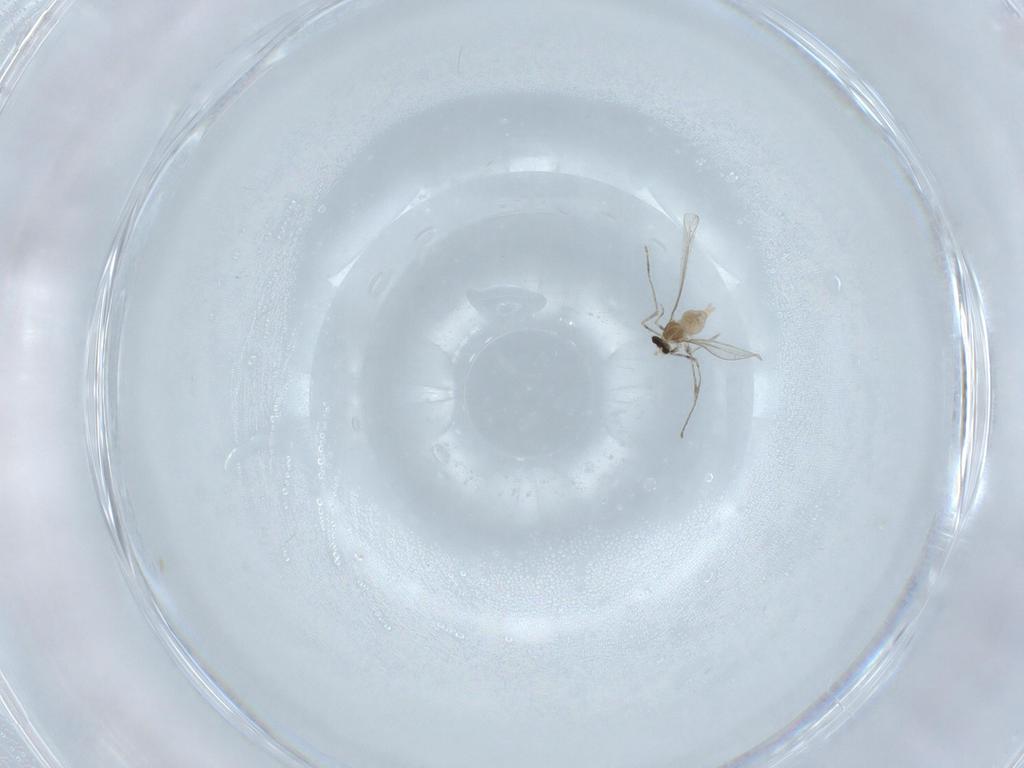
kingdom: Animalia
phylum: Arthropoda
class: Insecta
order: Diptera
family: Cecidomyiidae
